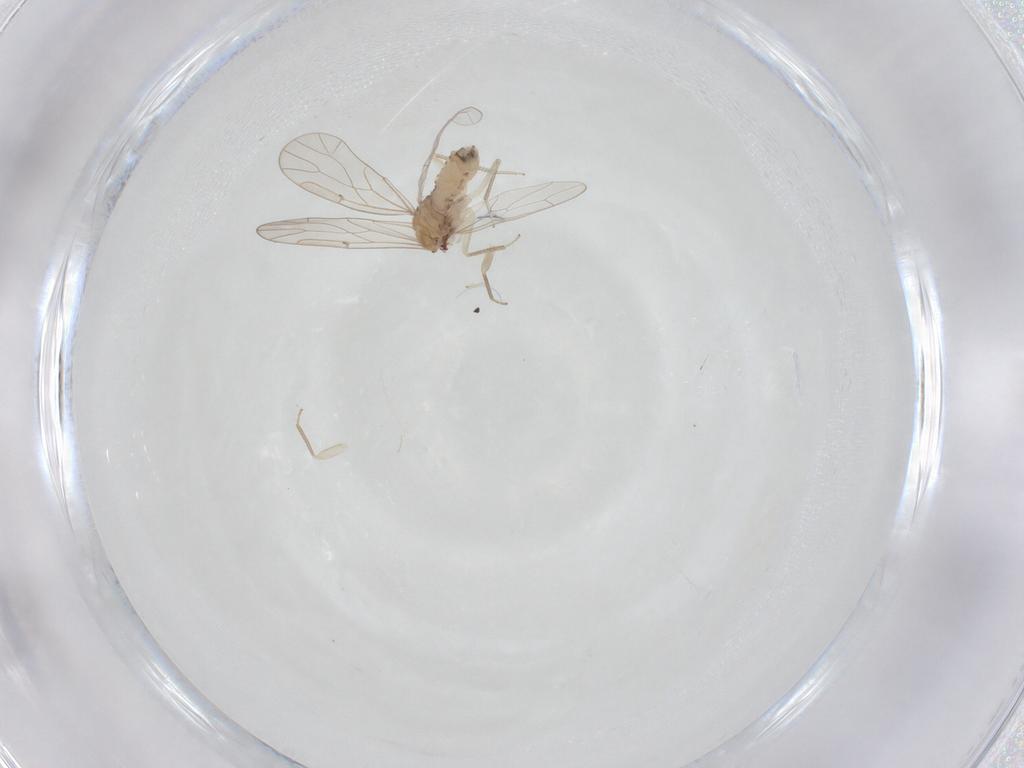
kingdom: Animalia
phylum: Arthropoda
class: Insecta
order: Psocodea
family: Ectopsocidae
